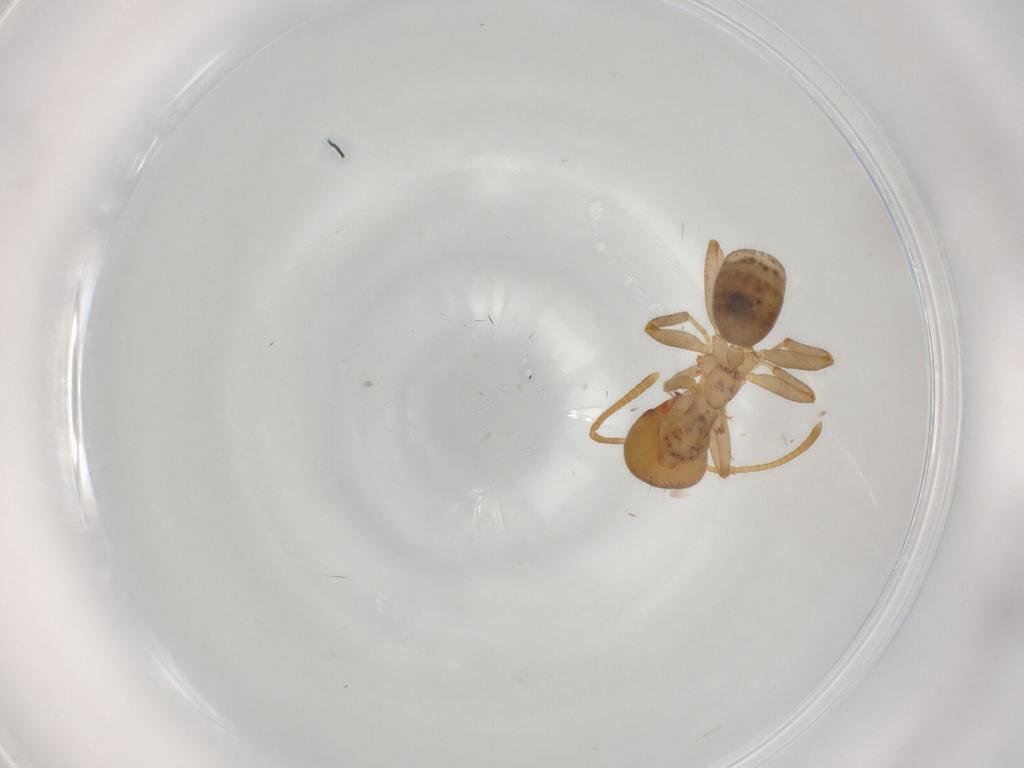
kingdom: Animalia
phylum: Arthropoda
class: Insecta
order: Hymenoptera
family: Formicidae
